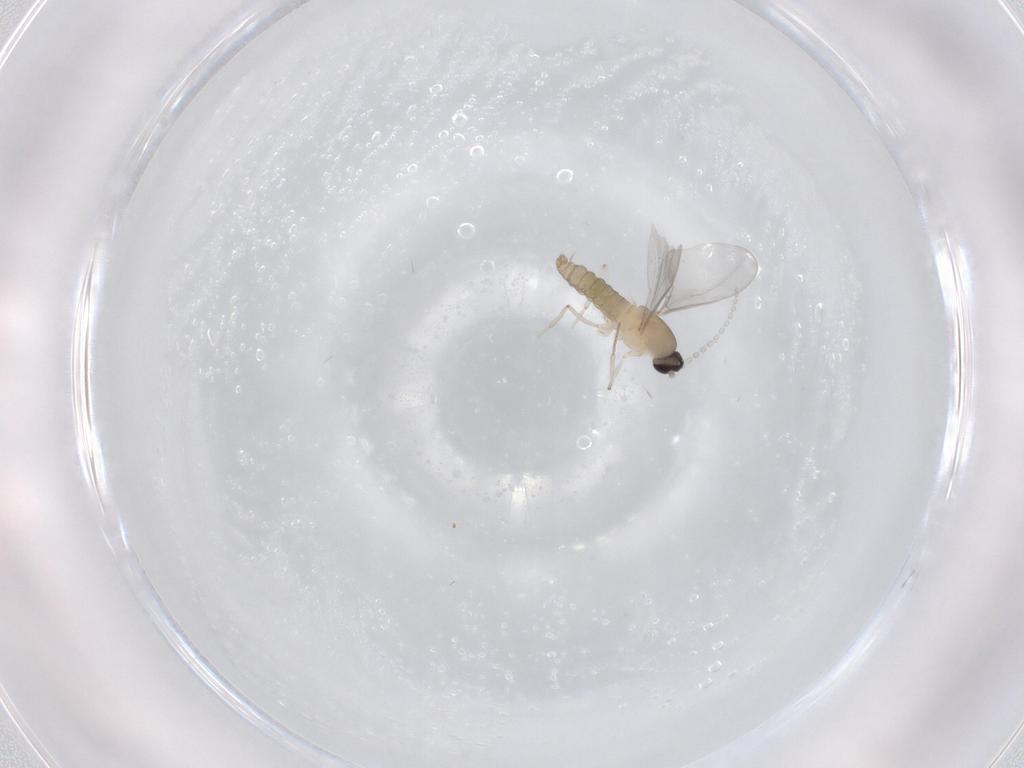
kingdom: Animalia
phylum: Arthropoda
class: Insecta
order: Diptera
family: Cecidomyiidae
